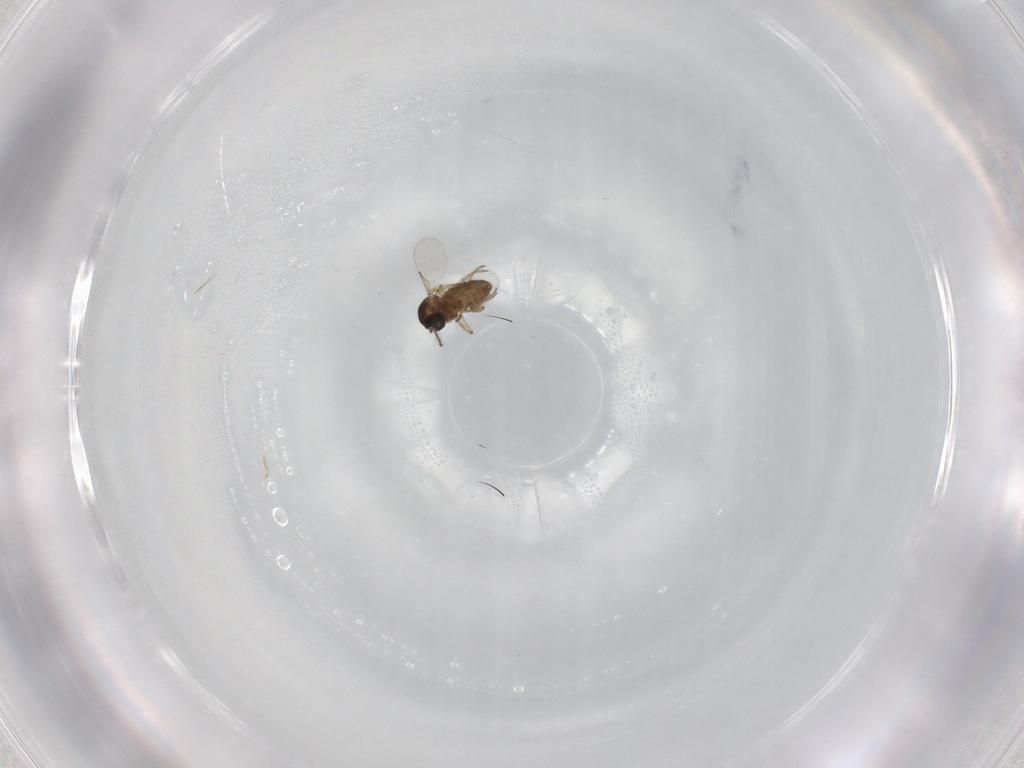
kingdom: Animalia
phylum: Arthropoda
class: Insecta
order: Diptera
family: Ceratopogonidae
